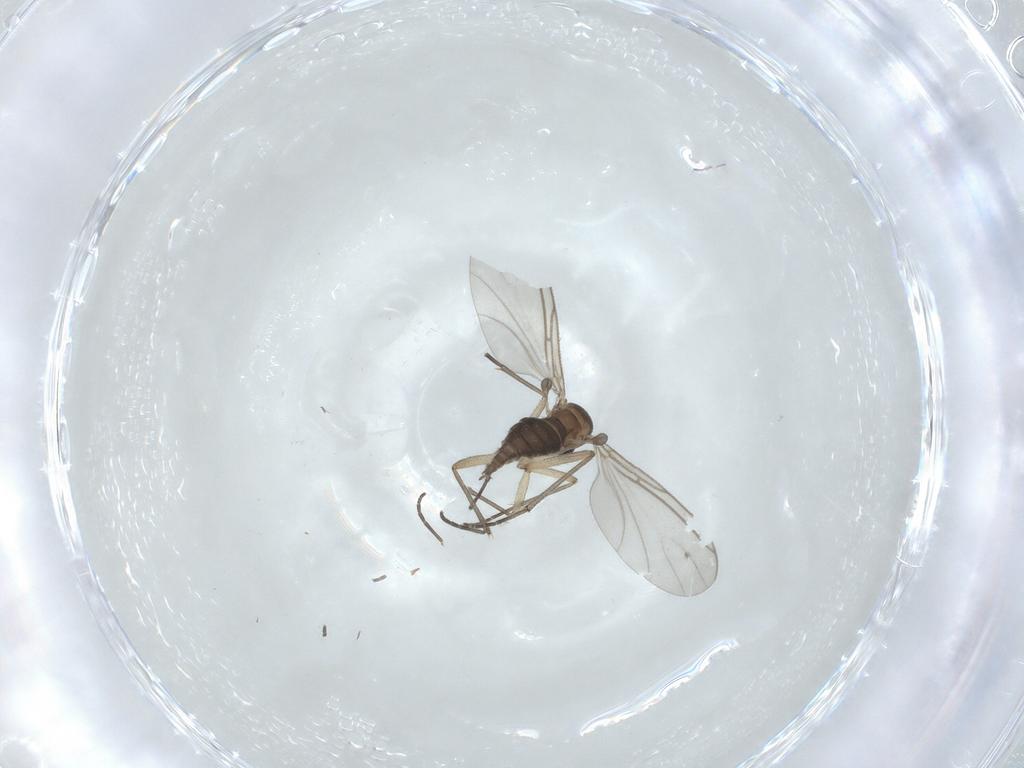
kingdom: Animalia
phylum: Arthropoda
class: Insecta
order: Diptera
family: Sciaridae
